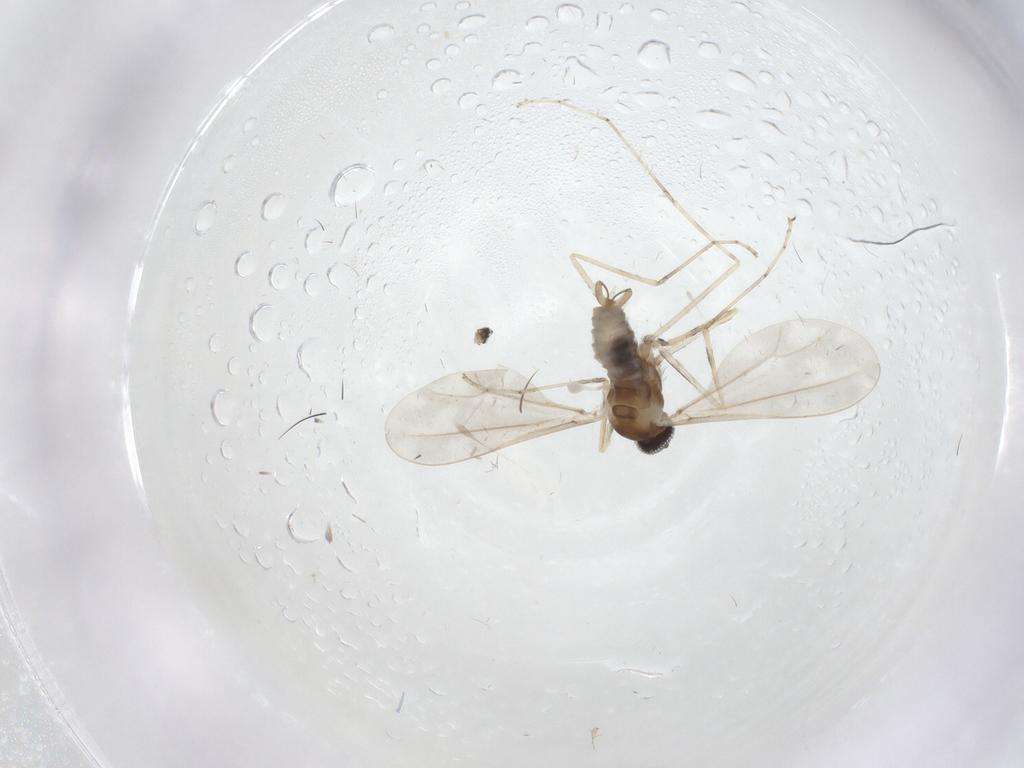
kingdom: Animalia
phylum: Arthropoda
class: Insecta
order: Diptera
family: Cecidomyiidae
